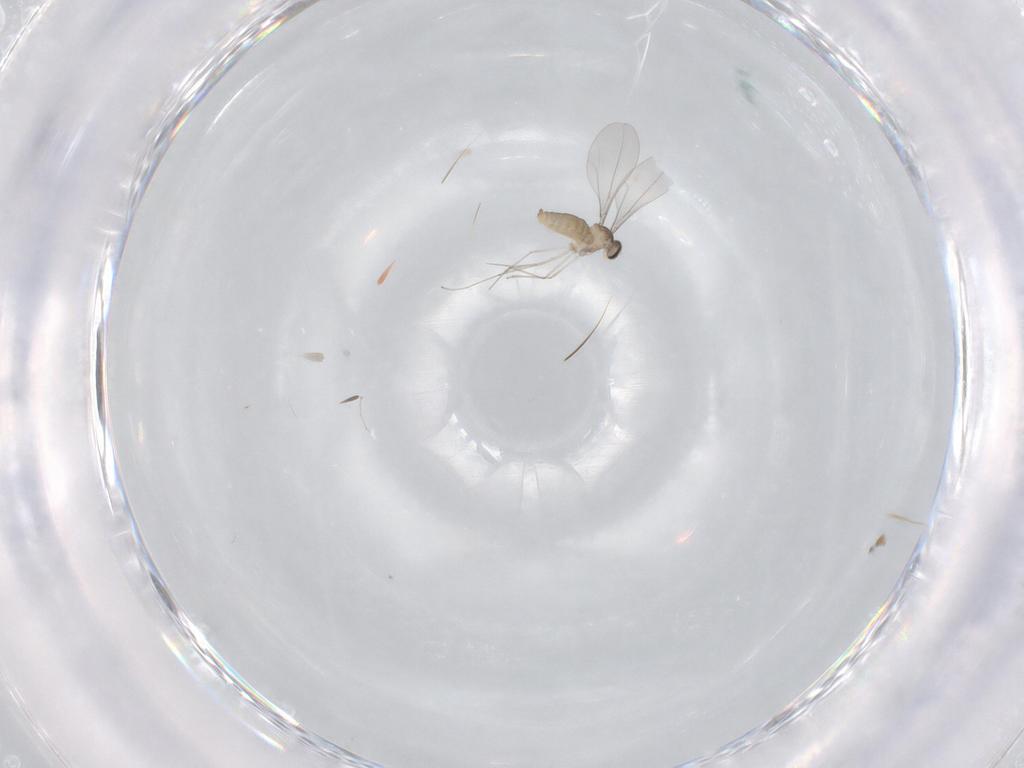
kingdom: Animalia
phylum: Arthropoda
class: Insecta
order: Diptera
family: Cecidomyiidae
